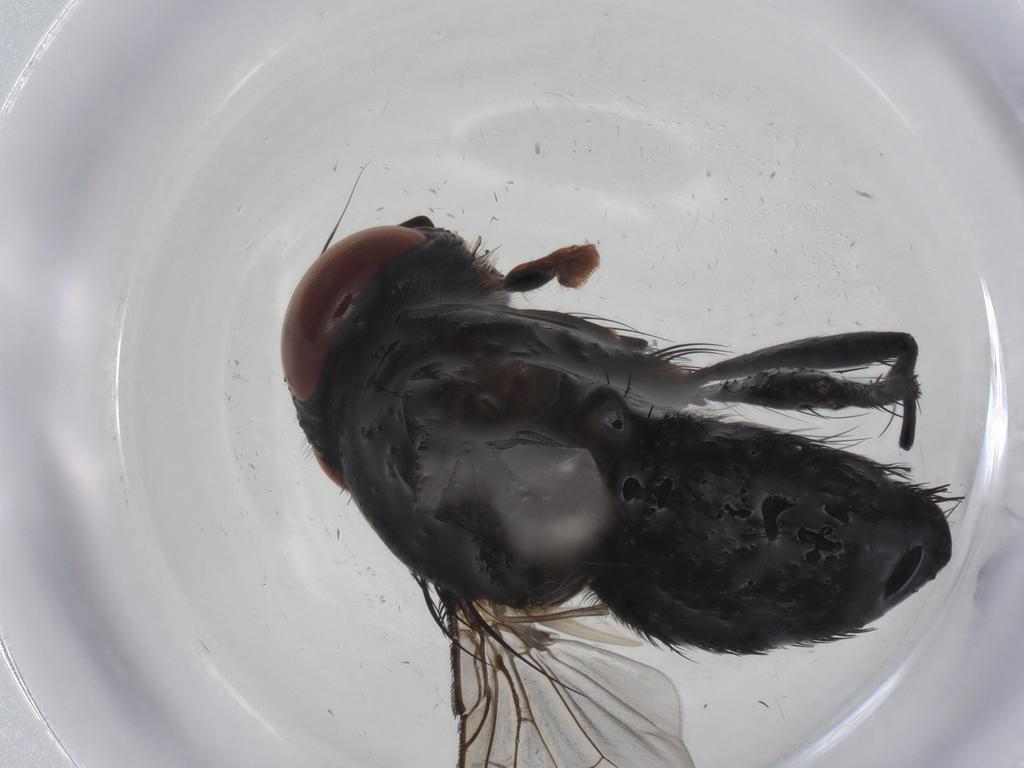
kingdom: Animalia
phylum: Arthropoda
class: Insecta
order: Diptera
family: Tachinidae
